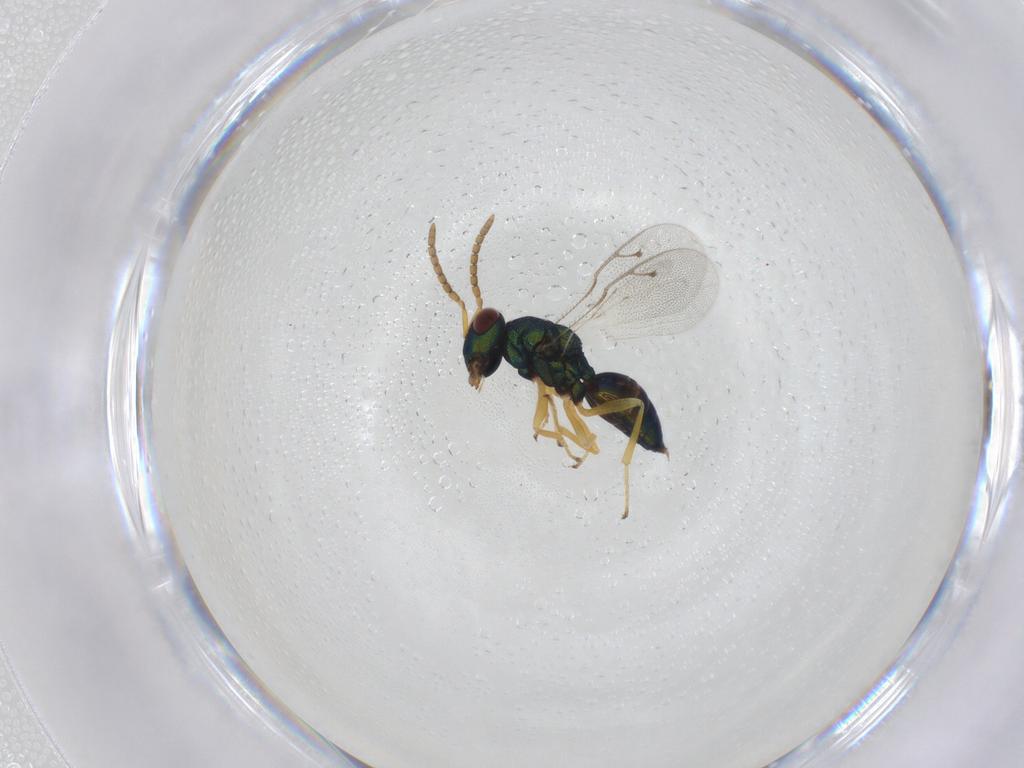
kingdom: Animalia
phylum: Arthropoda
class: Insecta
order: Hymenoptera
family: Pteromalidae
